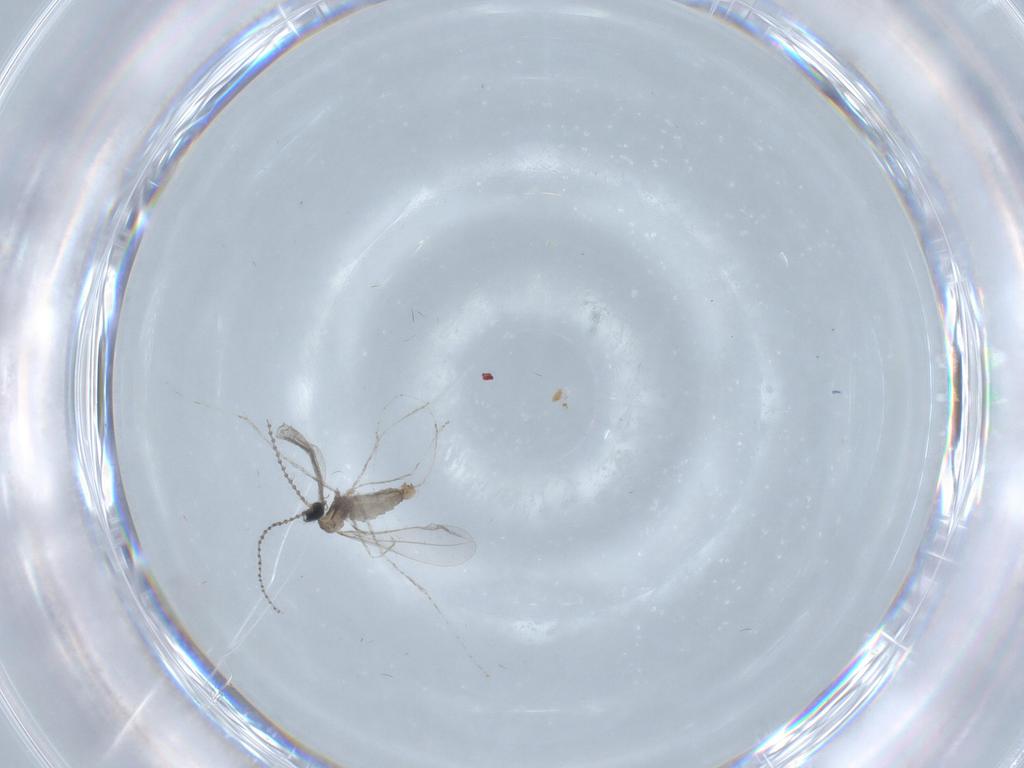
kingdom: Animalia
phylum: Arthropoda
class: Insecta
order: Diptera
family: Cecidomyiidae
